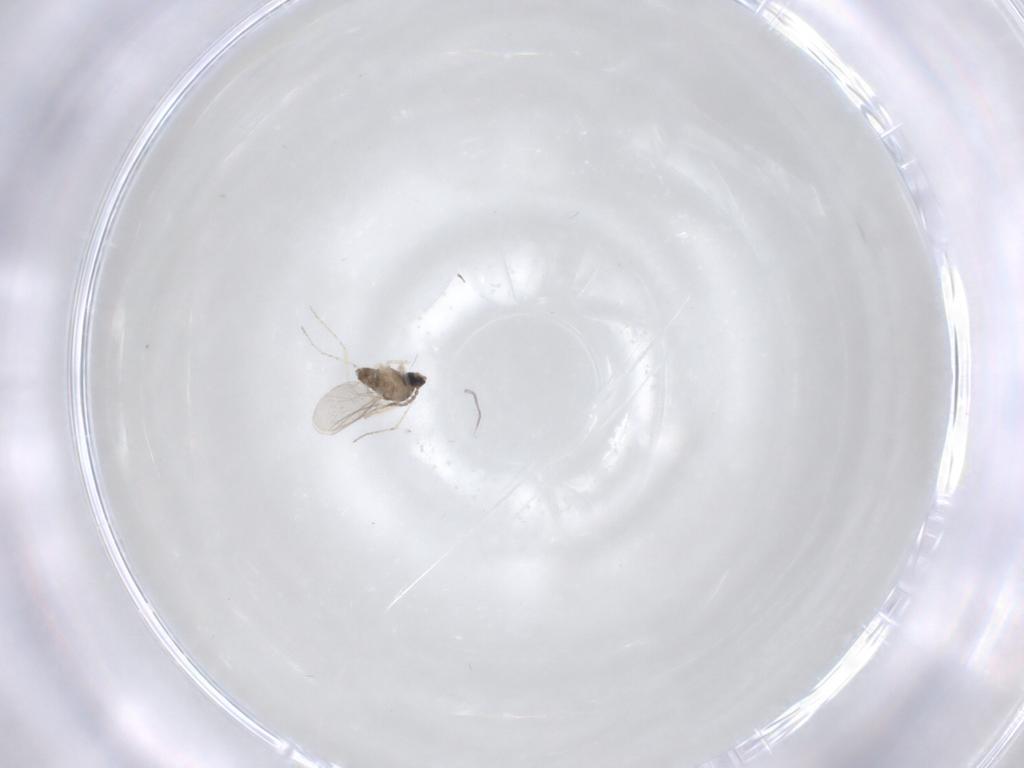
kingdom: Animalia
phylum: Arthropoda
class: Insecta
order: Diptera
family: Cecidomyiidae
